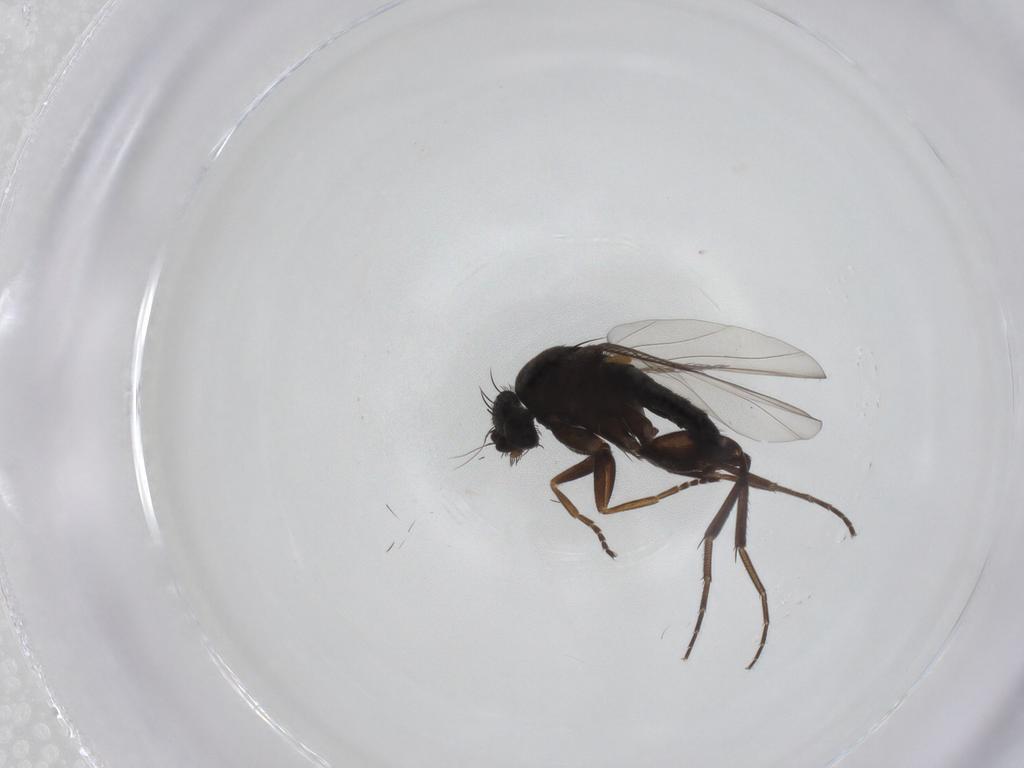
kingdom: Animalia
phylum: Arthropoda
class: Insecta
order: Diptera
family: Phoridae
